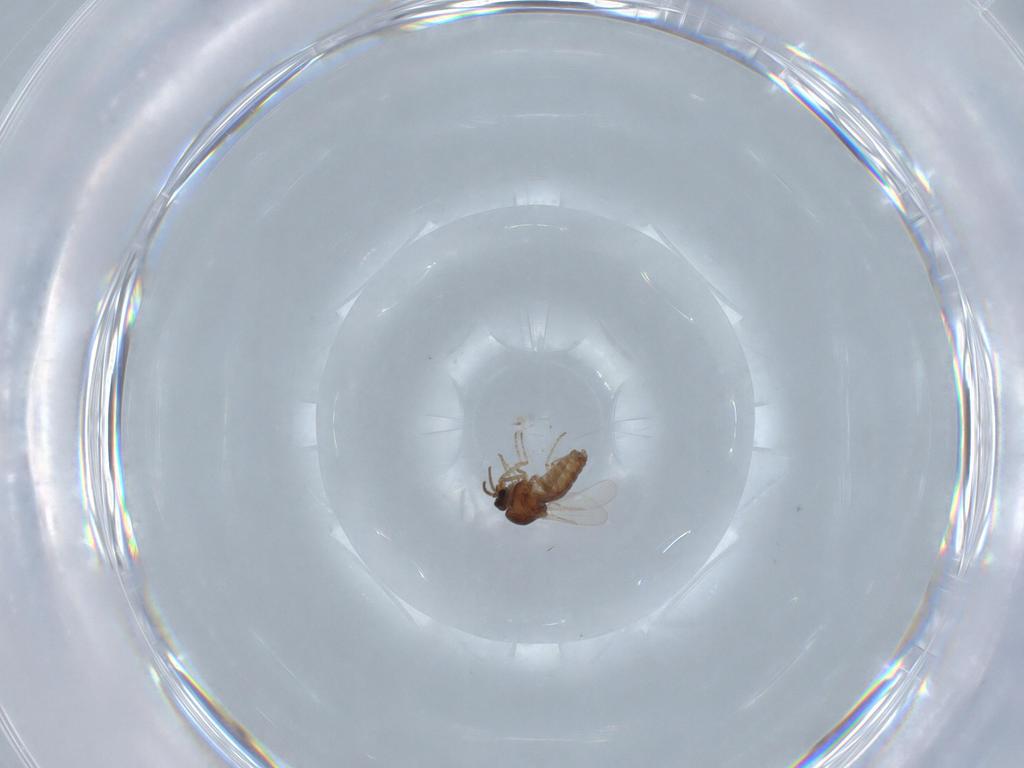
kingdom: Animalia
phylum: Arthropoda
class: Insecta
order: Diptera
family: Ceratopogonidae
